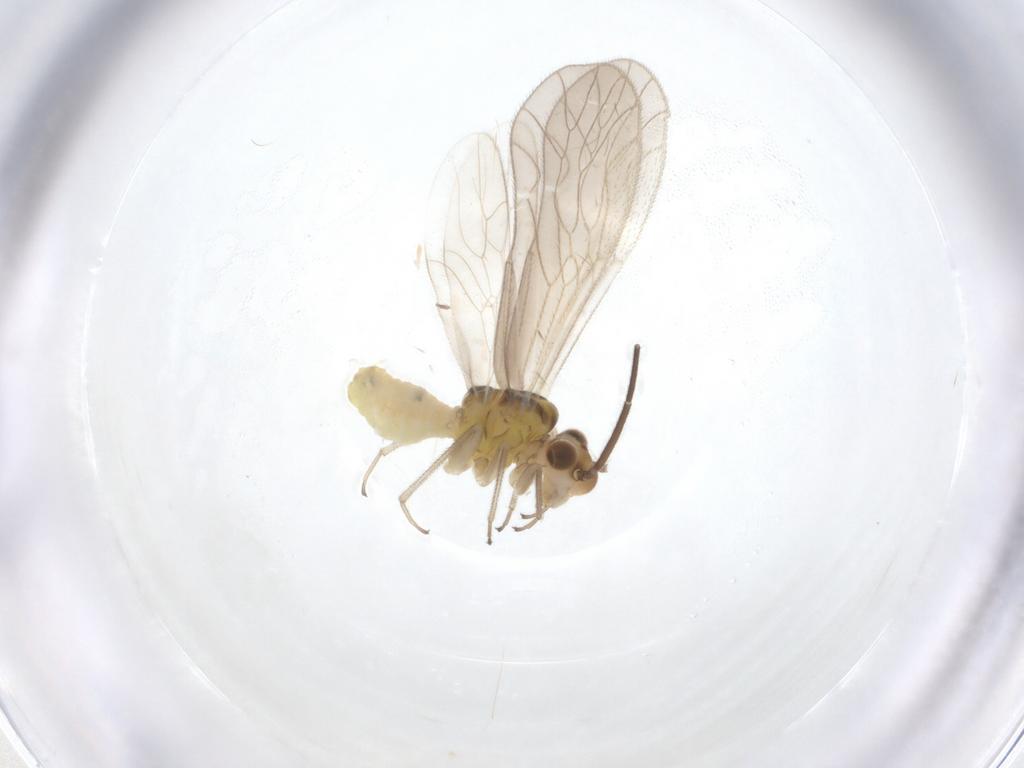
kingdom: Animalia
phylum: Arthropoda
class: Insecta
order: Psocodea
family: Caeciliusidae
